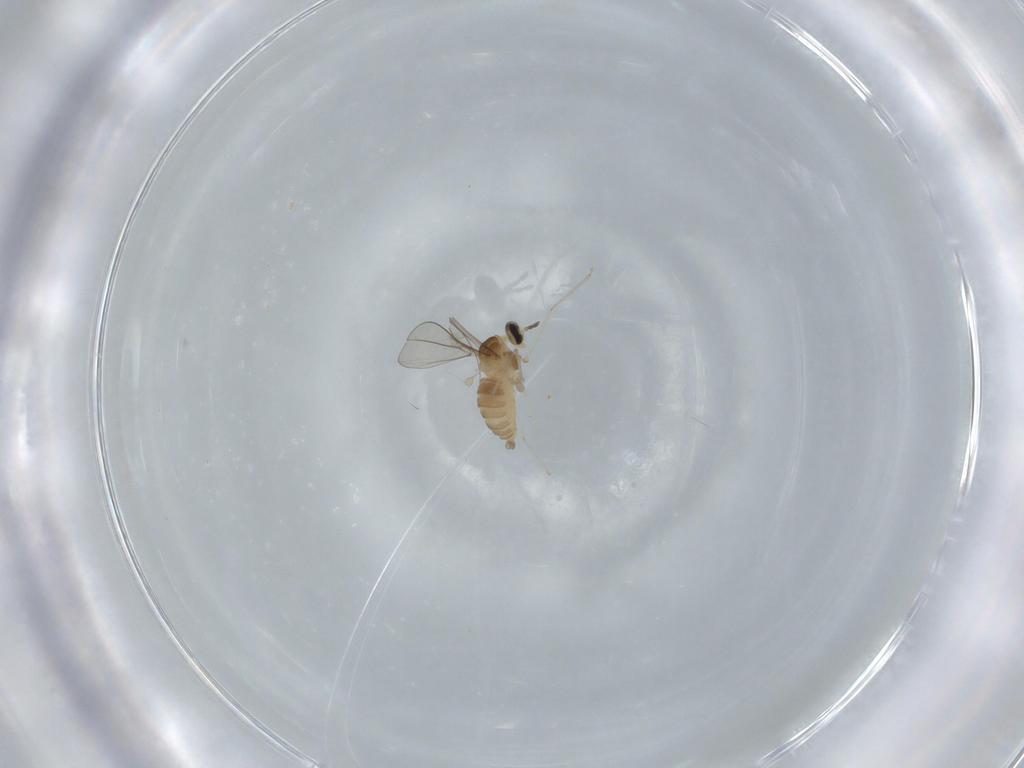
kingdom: Animalia
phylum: Arthropoda
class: Insecta
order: Diptera
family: Cecidomyiidae
